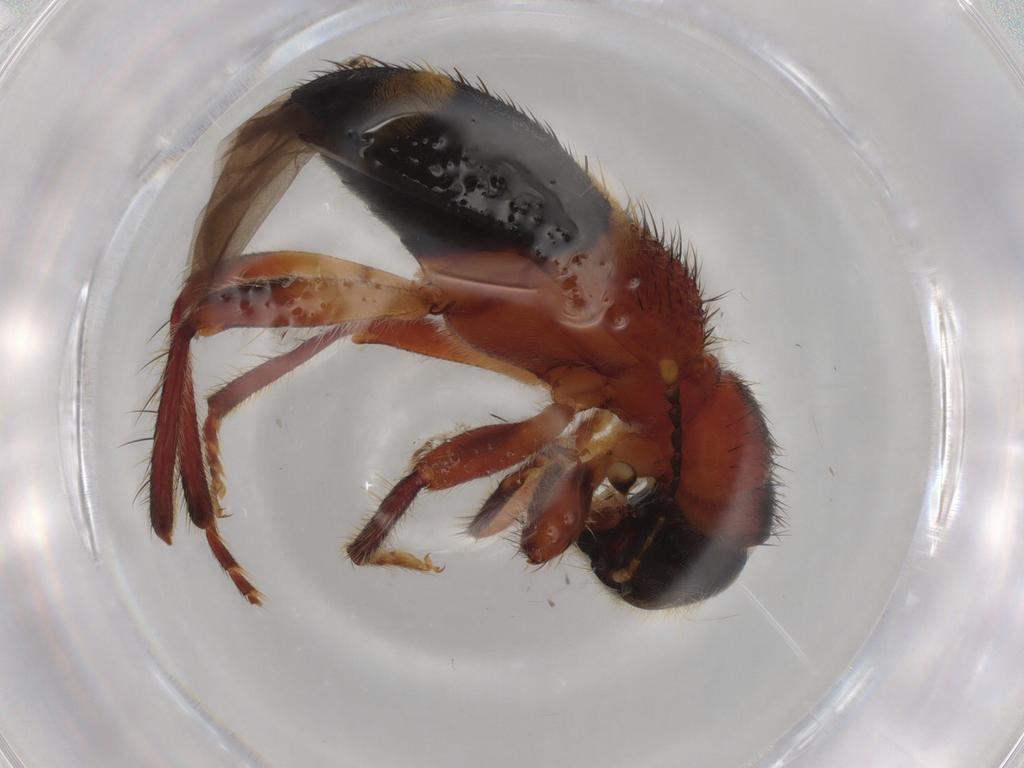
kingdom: Animalia
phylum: Arthropoda
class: Insecta
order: Coleoptera
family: Cleridae
